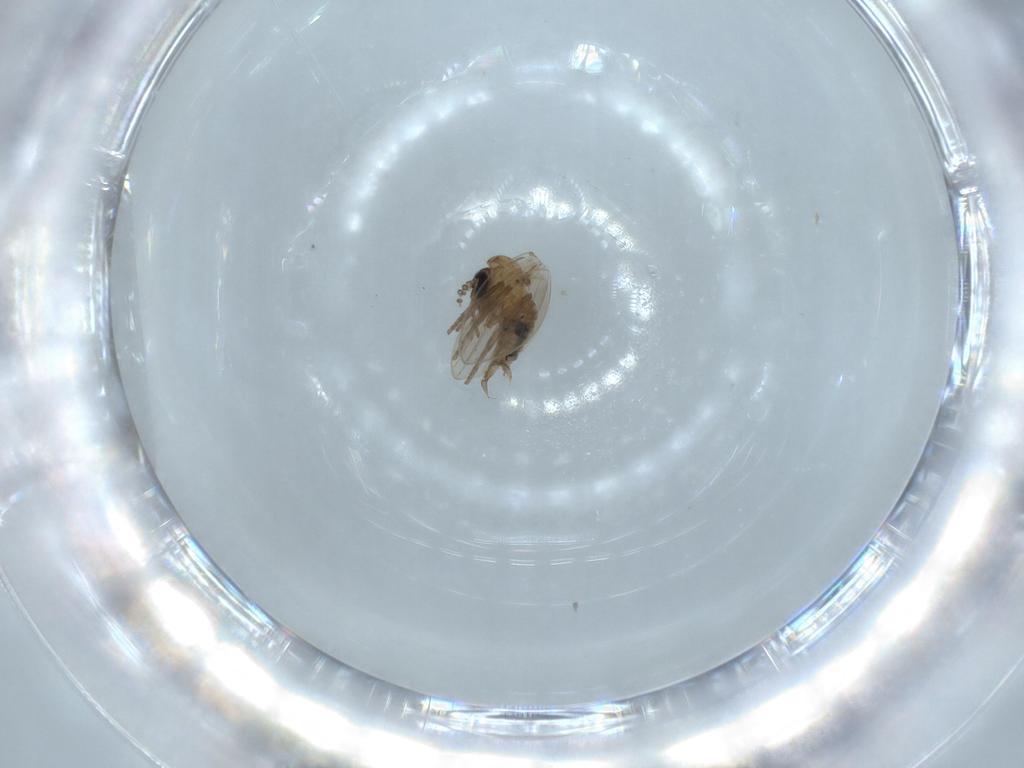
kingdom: Animalia
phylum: Arthropoda
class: Insecta
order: Diptera
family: Psychodidae
